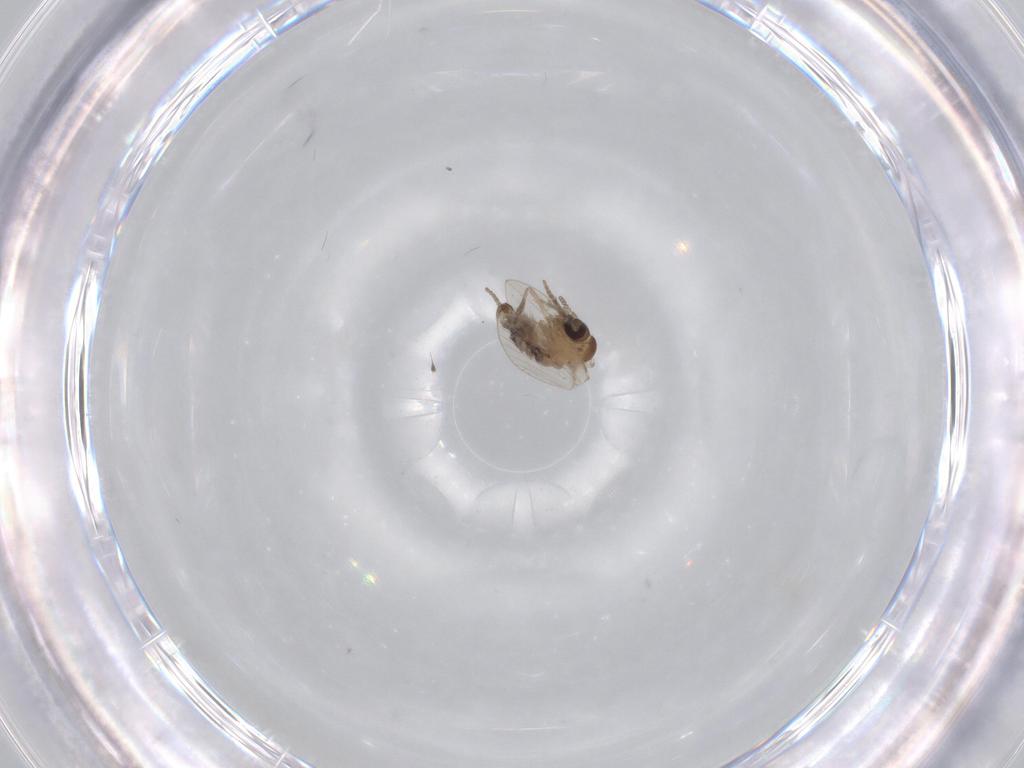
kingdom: Animalia
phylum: Arthropoda
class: Insecta
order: Diptera
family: Psychodidae
